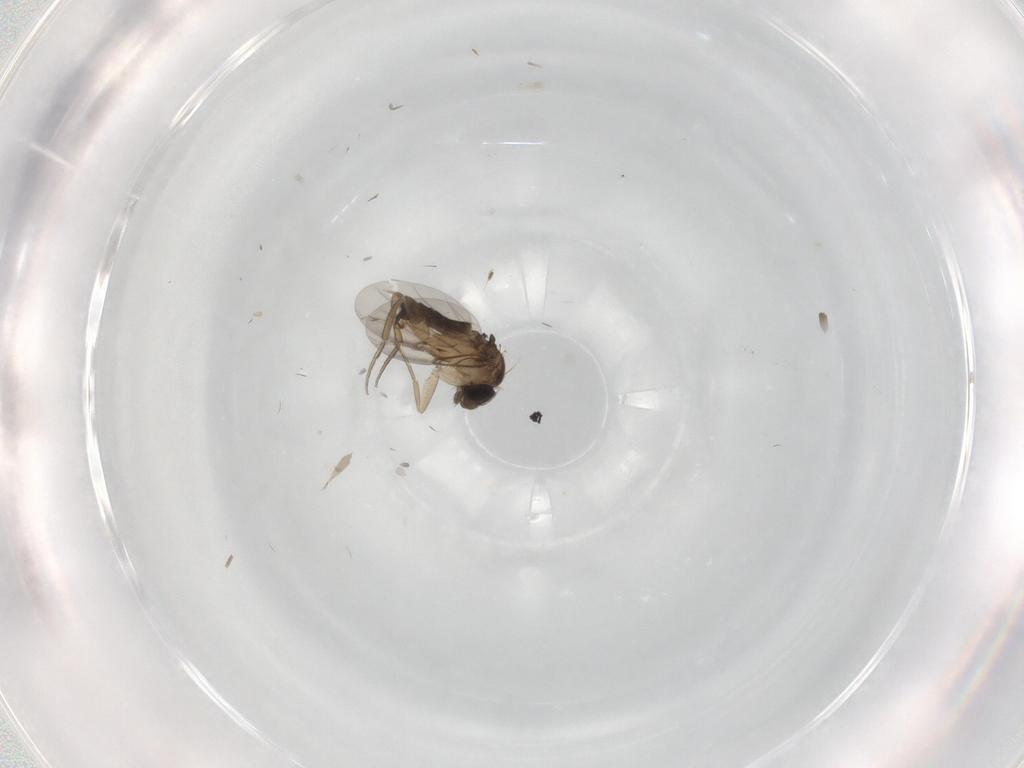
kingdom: Animalia
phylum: Arthropoda
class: Insecta
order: Diptera
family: Phoridae
